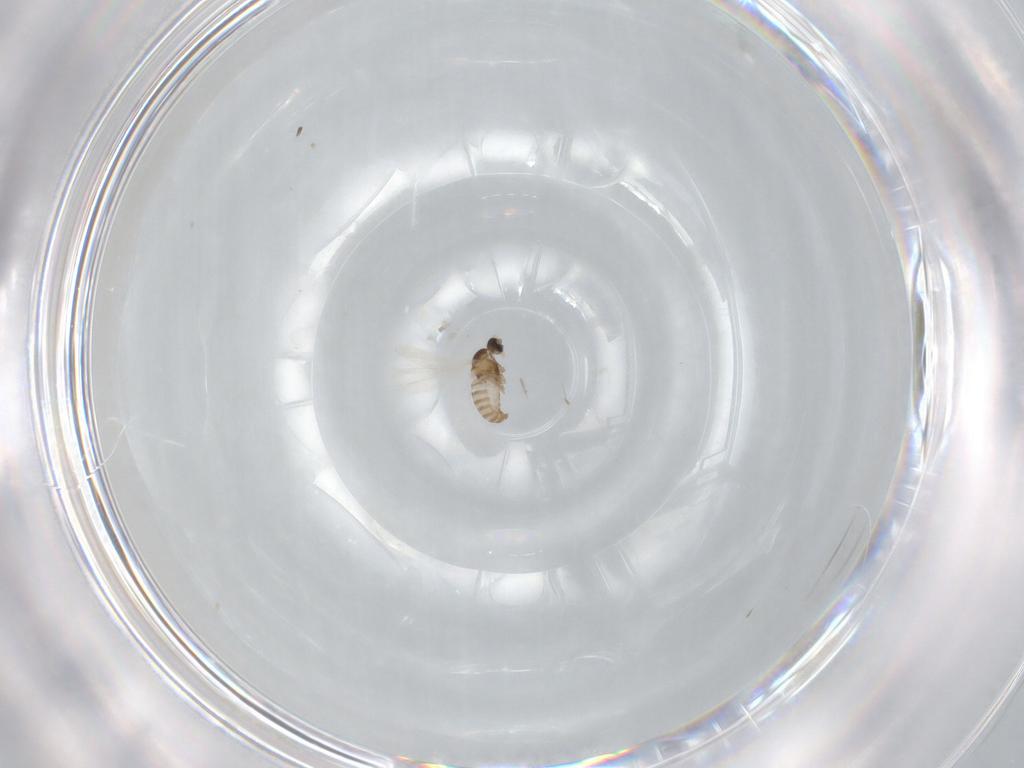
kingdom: Animalia
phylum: Arthropoda
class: Insecta
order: Diptera
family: Cecidomyiidae
